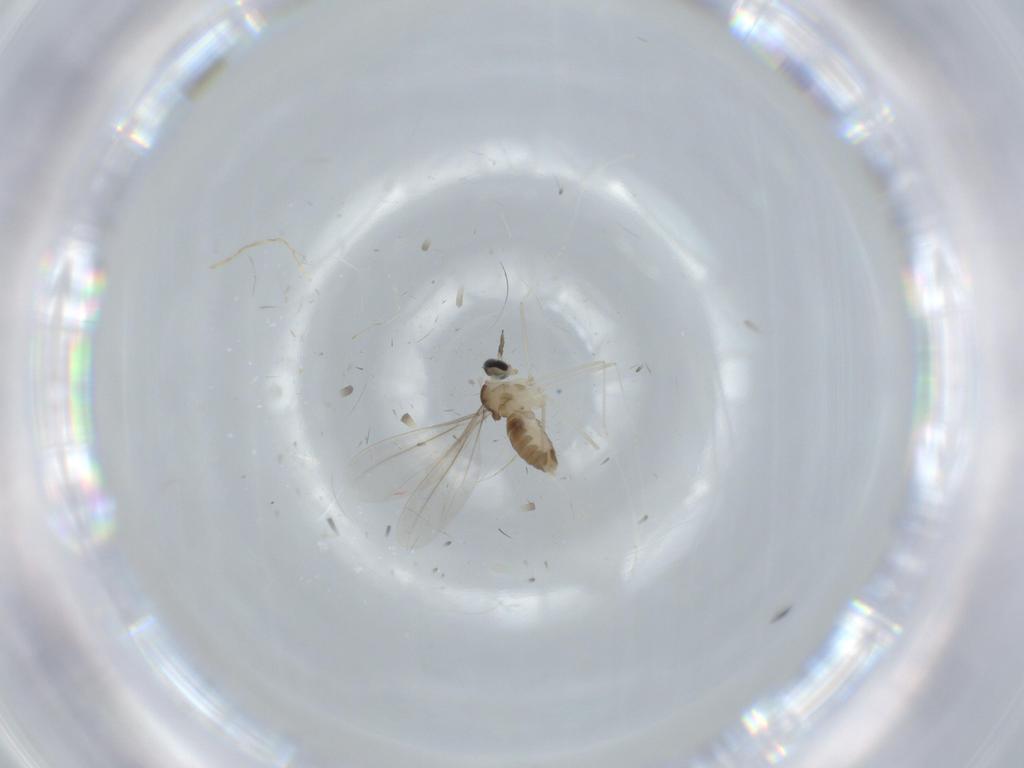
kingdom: Animalia
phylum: Arthropoda
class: Insecta
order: Diptera
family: Cecidomyiidae
